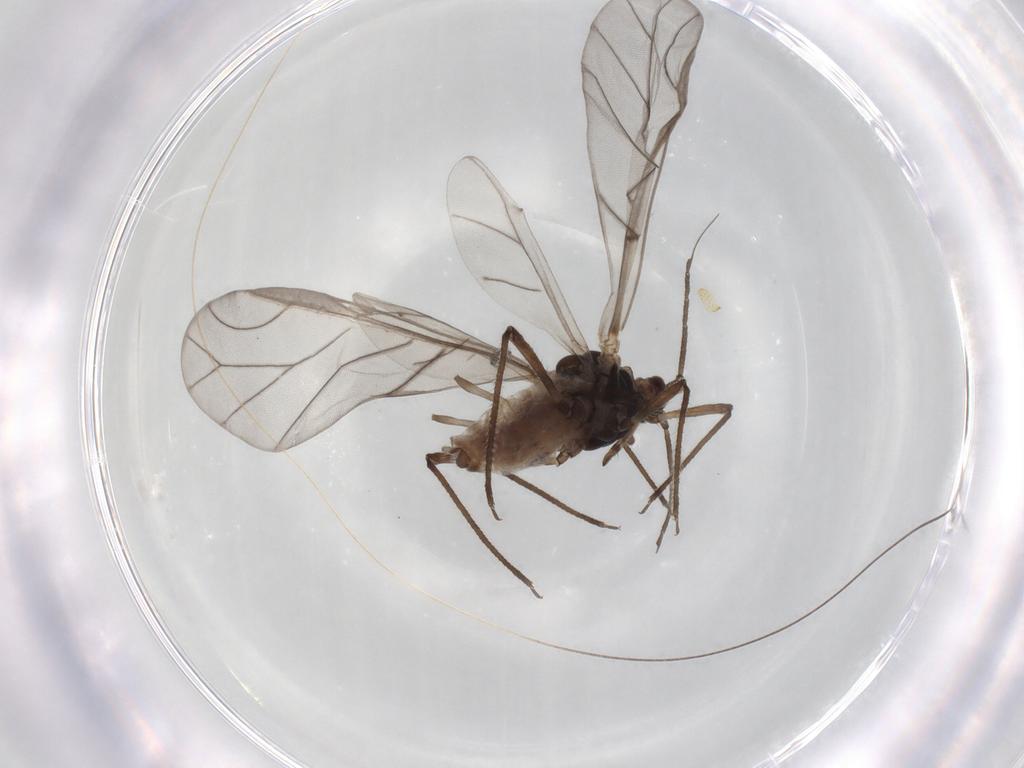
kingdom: Animalia
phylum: Arthropoda
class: Insecta
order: Hemiptera
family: Aphididae
